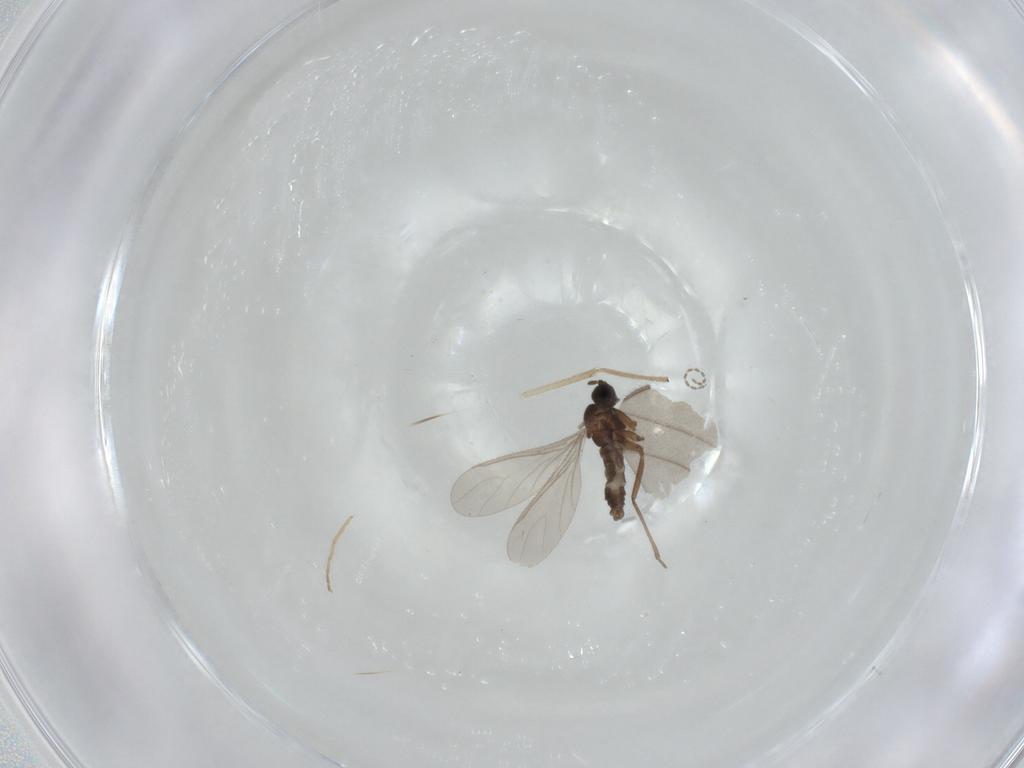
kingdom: Animalia
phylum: Arthropoda
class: Insecta
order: Diptera
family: Sciaridae
